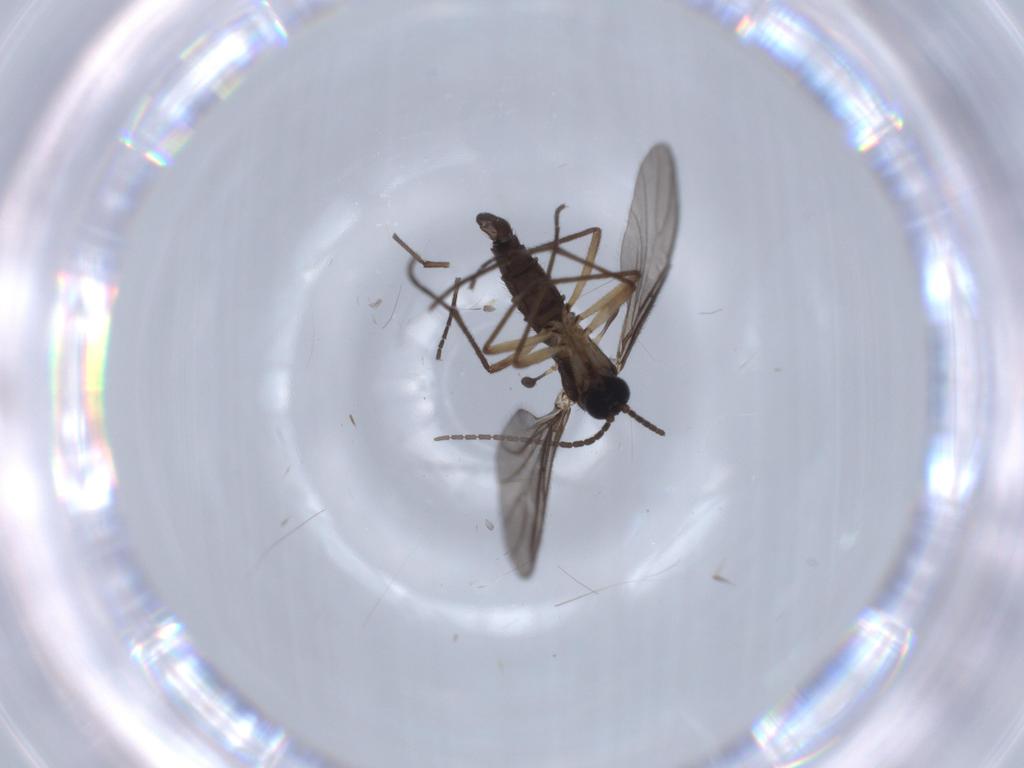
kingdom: Animalia
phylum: Arthropoda
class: Insecta
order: Diptera
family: Sciaridae
